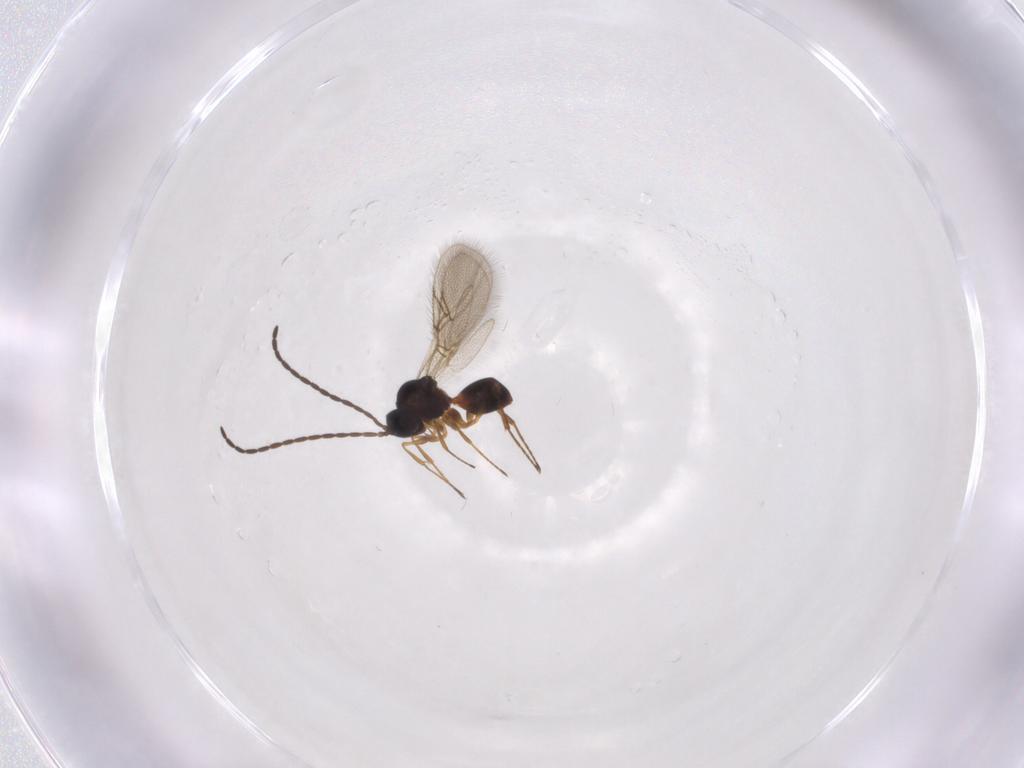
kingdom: Animalia
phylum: Arthropoda
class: Insecta
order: Hymenoptera
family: Figitidae
